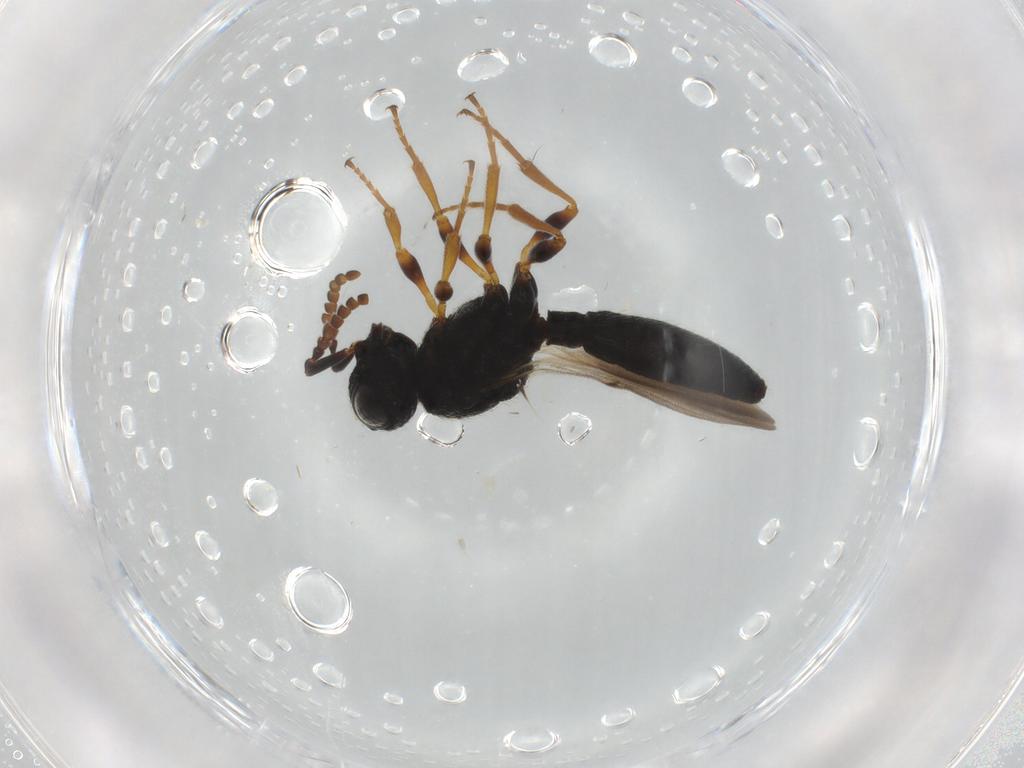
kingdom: Animalia
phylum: Arthropoda
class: Insecta
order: Hymenoptera
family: Scelionidae
